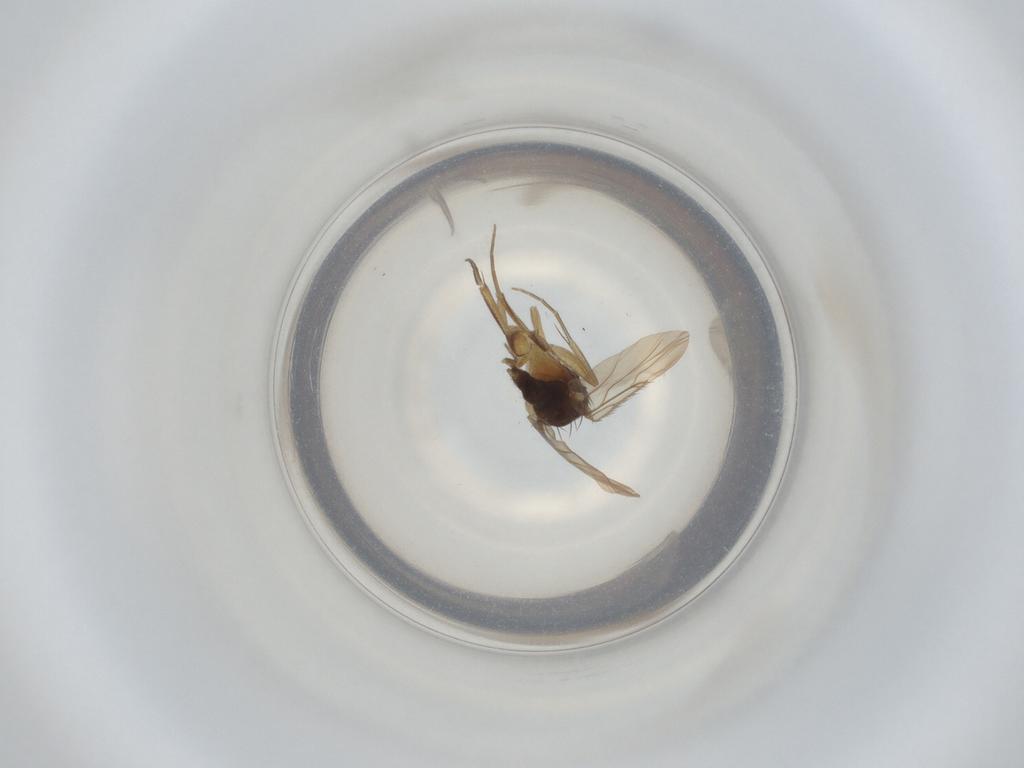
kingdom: Animalia
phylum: Arthropoda
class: Insecta
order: Diptera
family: Phoridae
